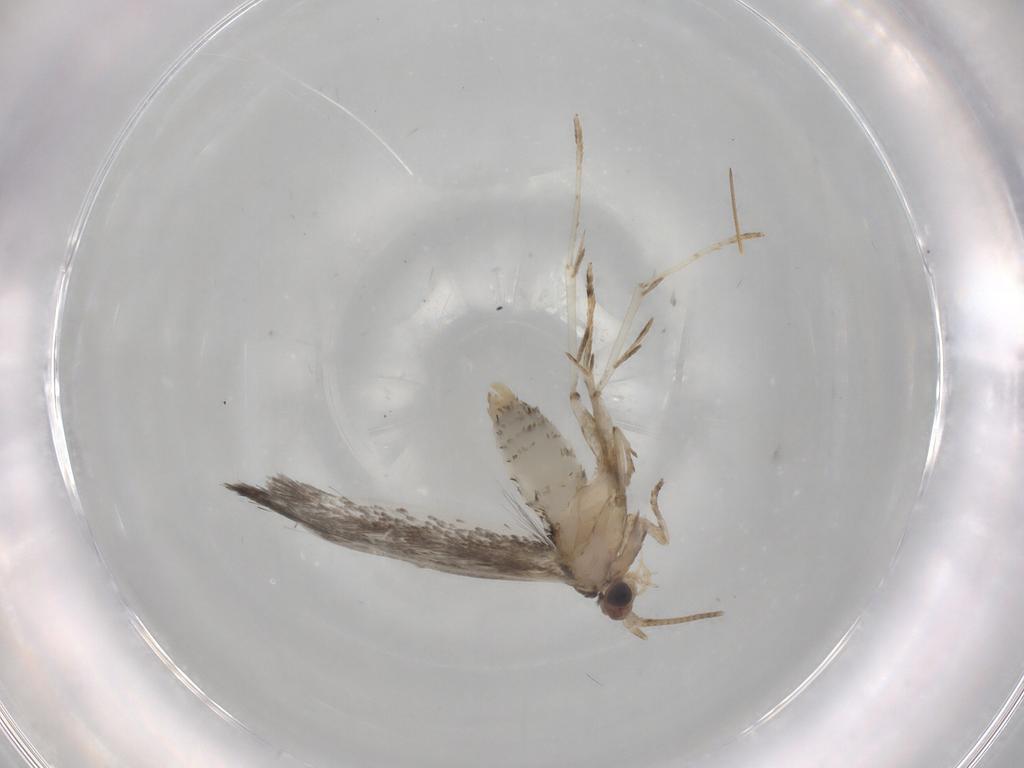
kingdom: Animalia
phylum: Arthropoda
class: Insecta
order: Lepidoptera
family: Tineidae
